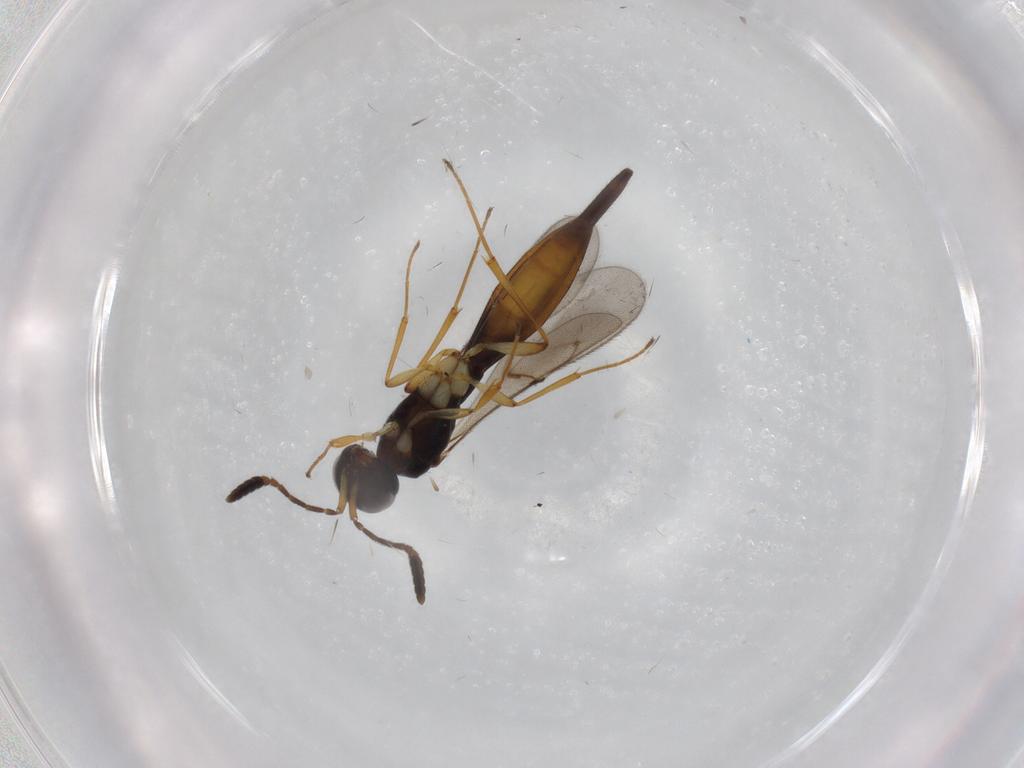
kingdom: Animalia
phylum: Arthropoda
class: Insecta
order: Hymenoptera
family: Scelionidae
